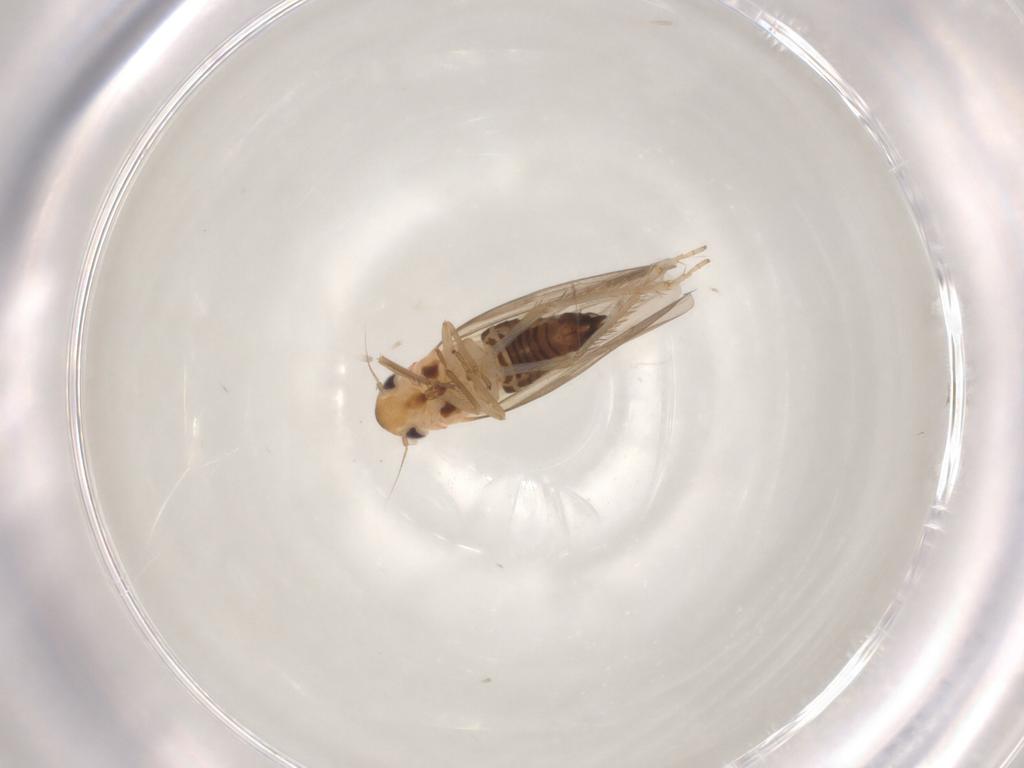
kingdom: Animalia
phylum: Arthropoda
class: Insecta
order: Hemiptera
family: Cicadellidae
